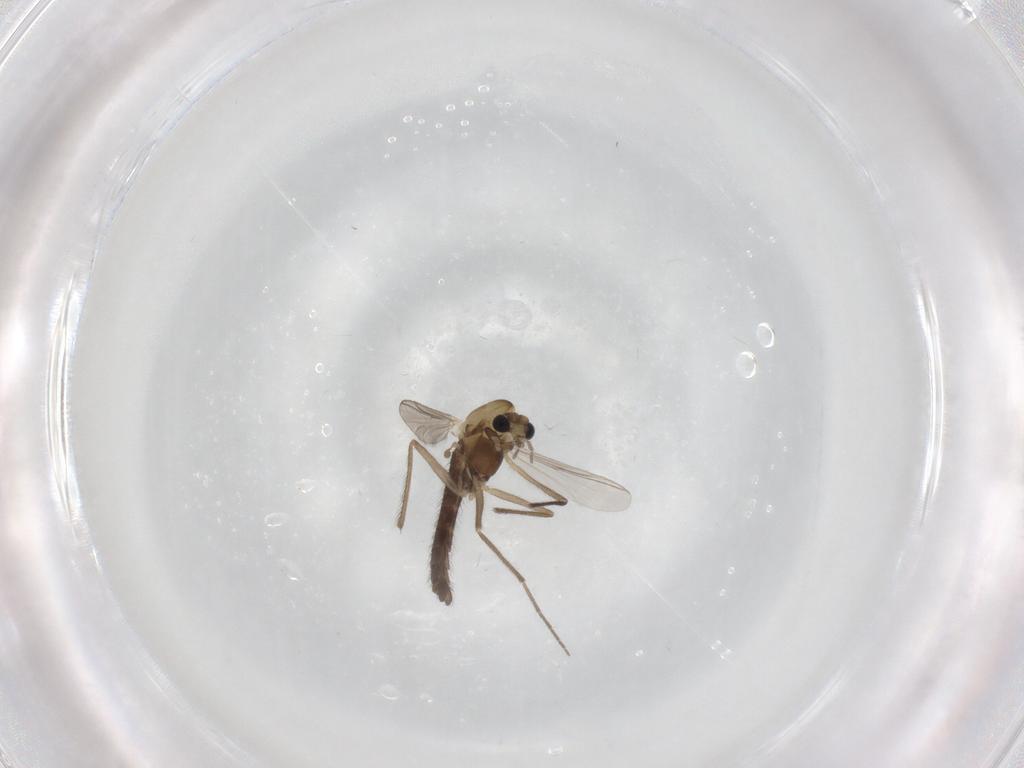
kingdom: Animalia
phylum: Arthropoda
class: Insecta
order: Diptera
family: Chironomidae
